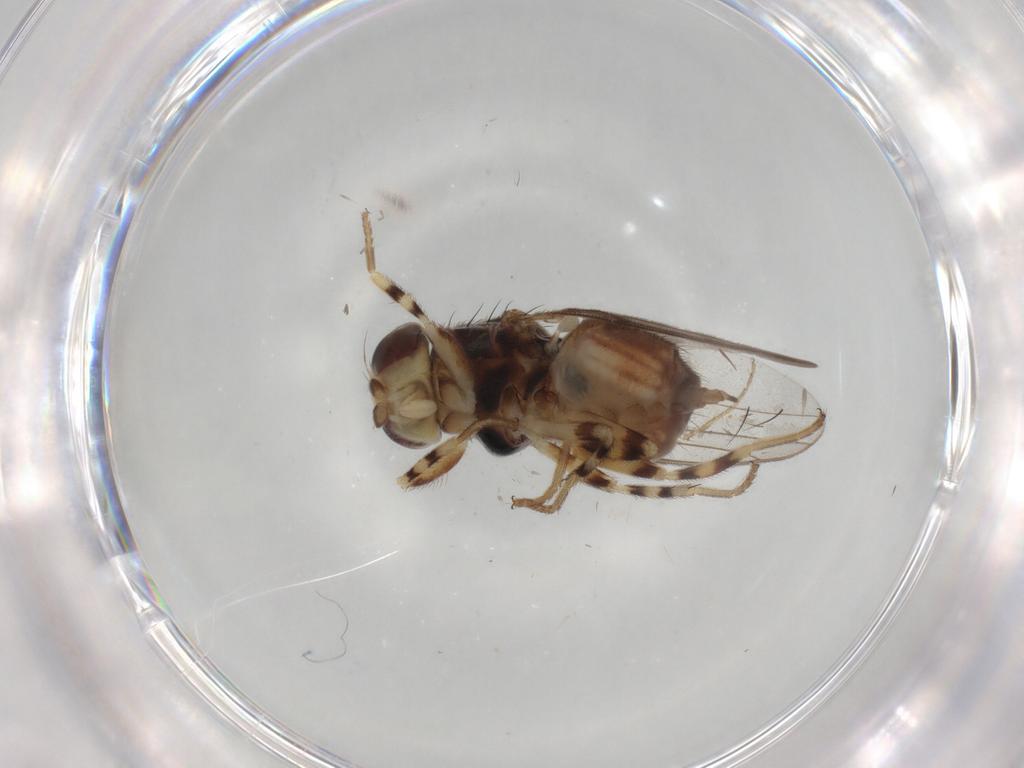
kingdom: Animalia
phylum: Arthropoda
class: Insecta
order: Diptera
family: Chloropidae
